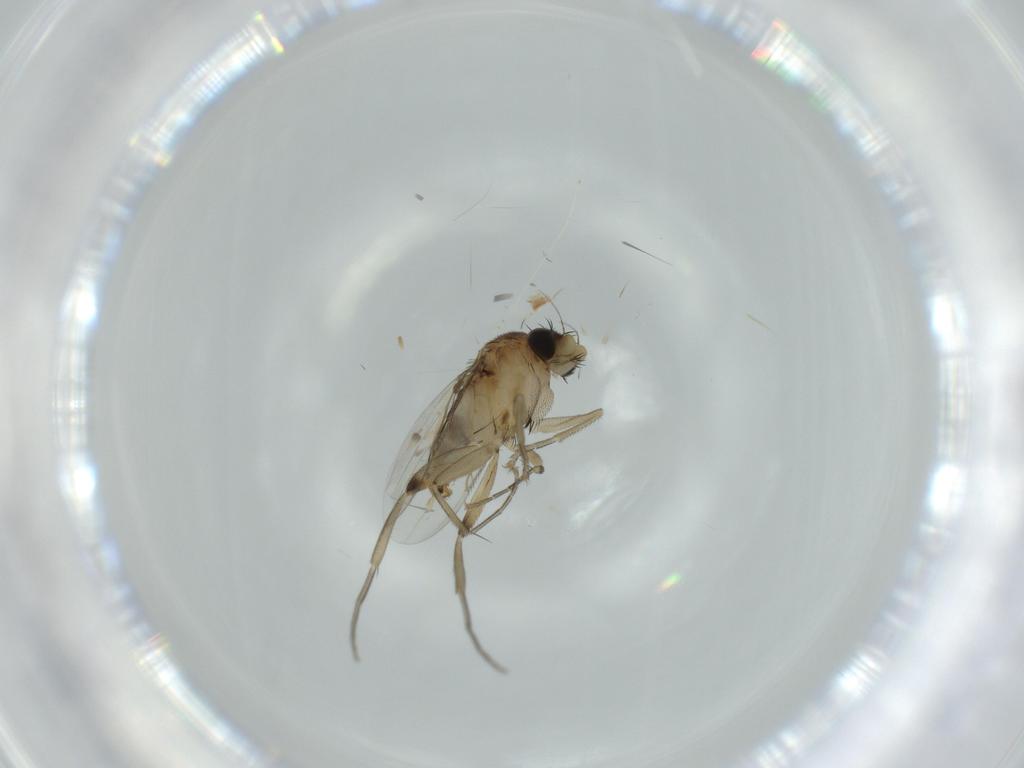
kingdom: Animalia
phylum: Arthropoda
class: Insecta
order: Diptera
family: Phoridae
